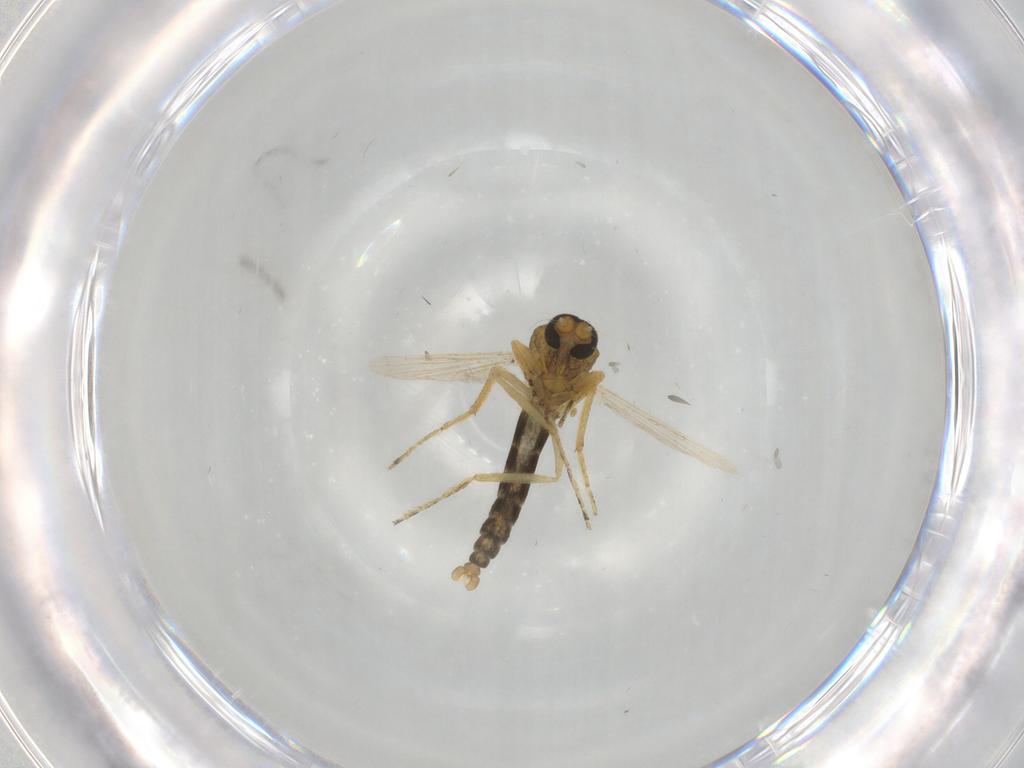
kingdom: Animalia
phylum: Arthropoda
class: Insecta
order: Diptera
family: Ceratopogonidae
